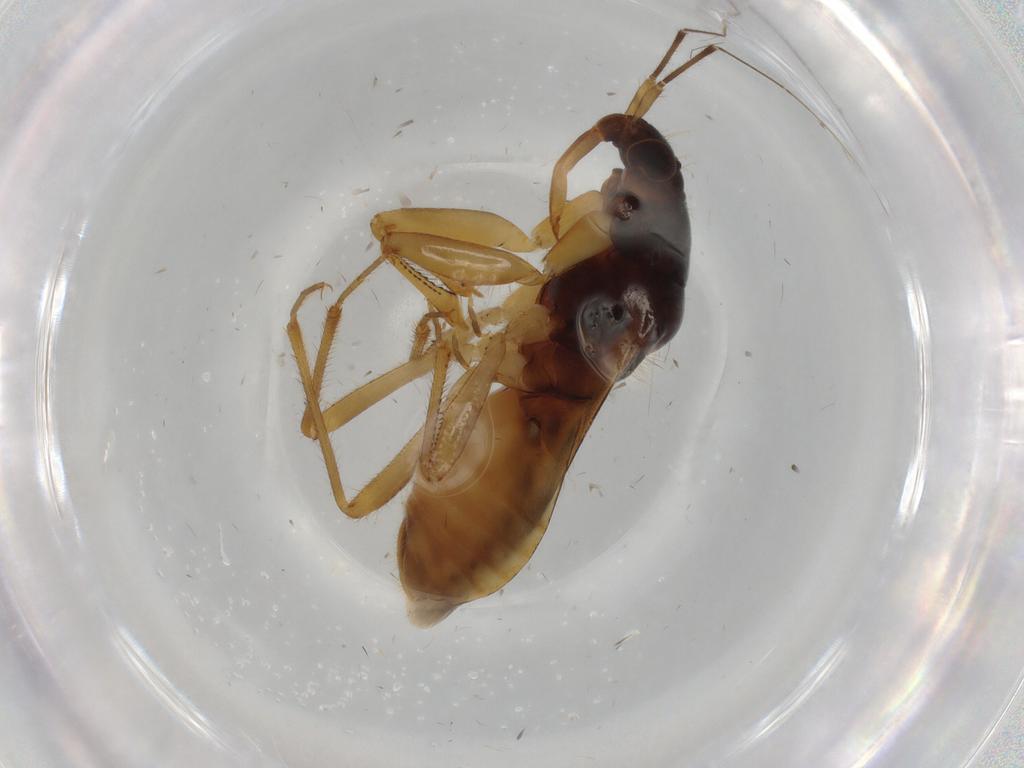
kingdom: Animalia
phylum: Arthropoda
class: Insecta
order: Hemiptera
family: Nabidae
